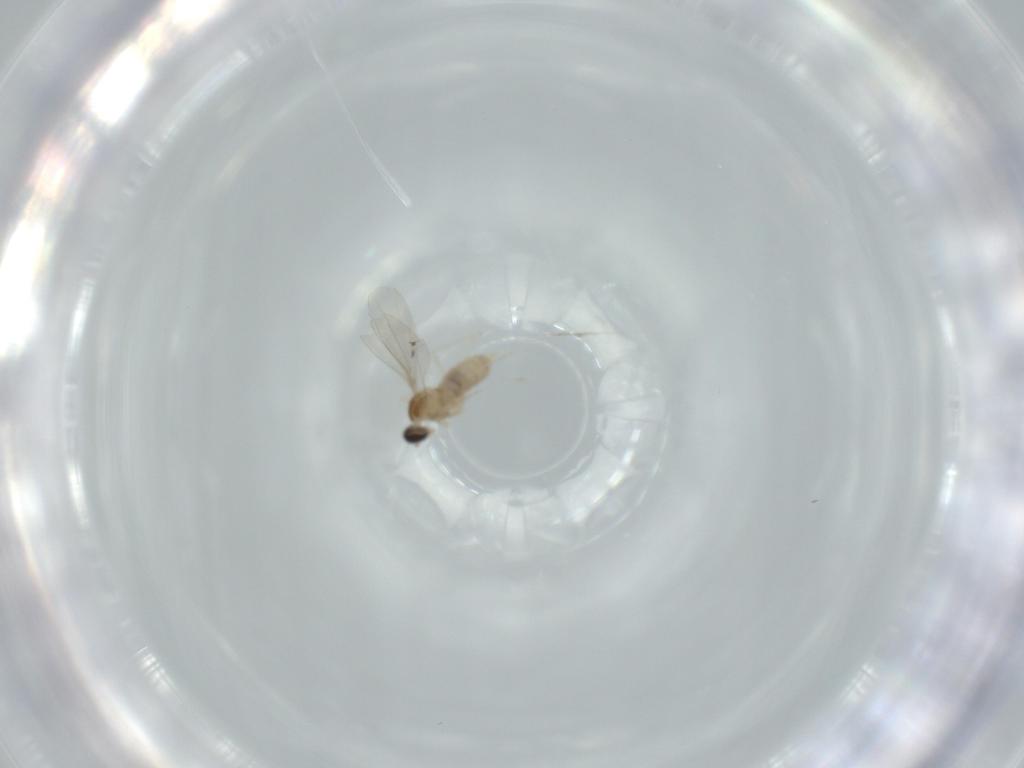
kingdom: Animalia
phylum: Arthropoda
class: Insecta
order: Diptera
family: Cecidomyiidae
